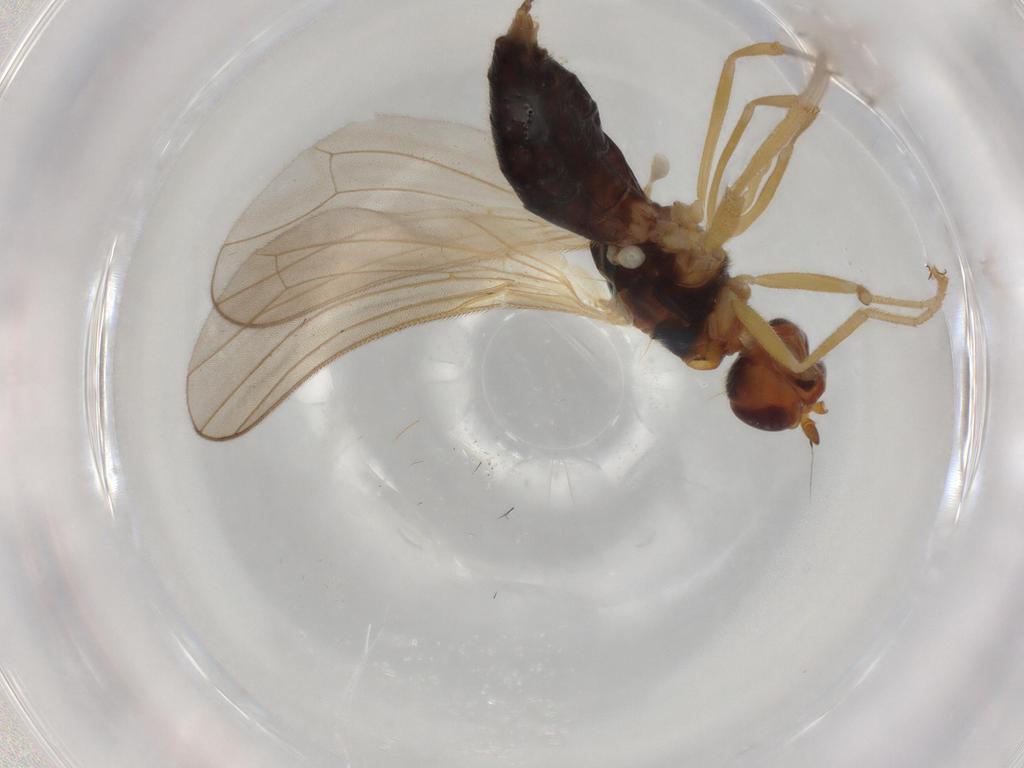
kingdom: Animalia
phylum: Arthropoda
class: Insecta
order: Diptera
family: Psilidae
